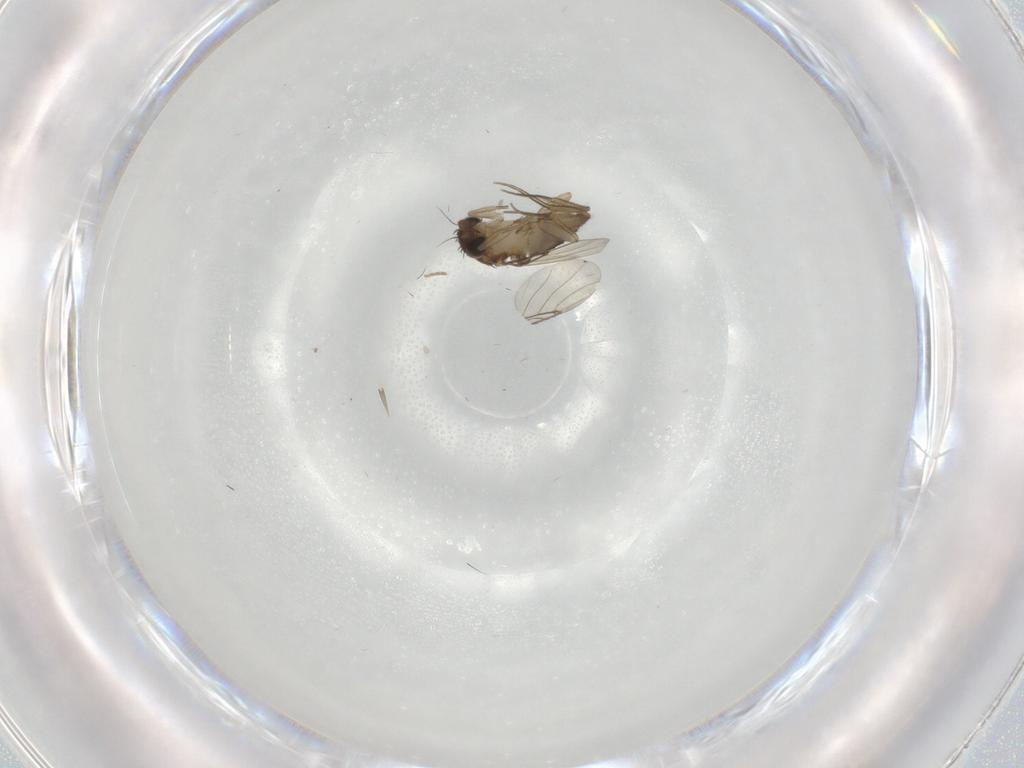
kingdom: Animalia
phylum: Arthropoda
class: Insecta
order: Diptera
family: Phoridae
